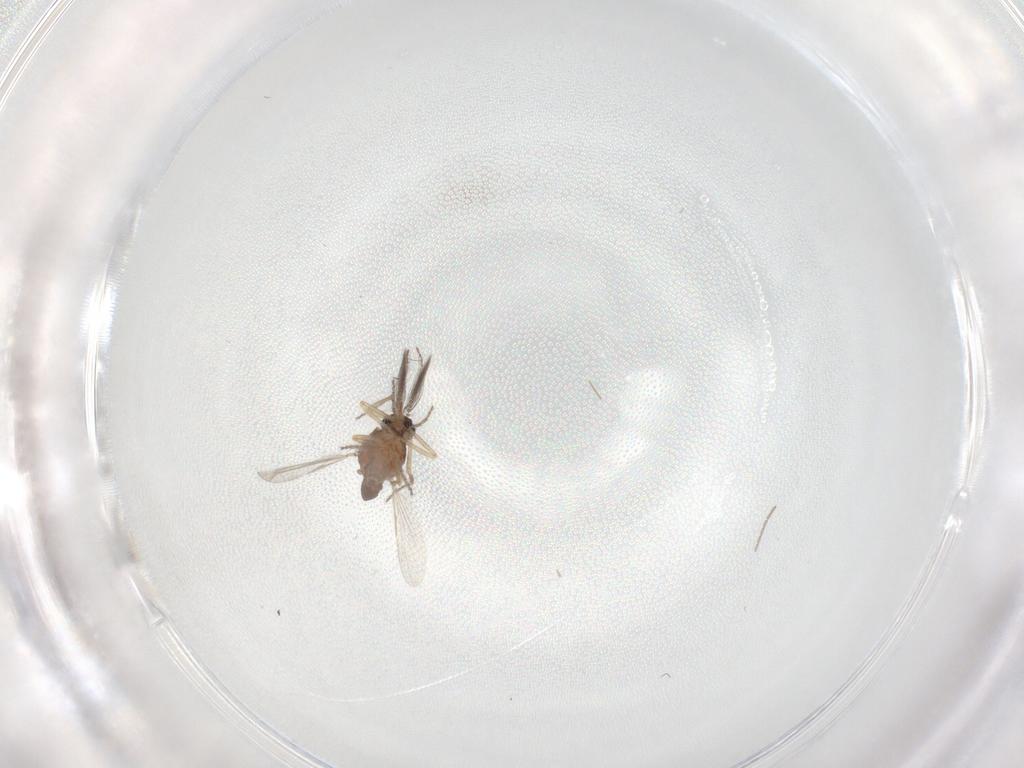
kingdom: Animalia
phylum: Arthropoda
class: Insecta
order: Diptera
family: Ceratopogonidae
